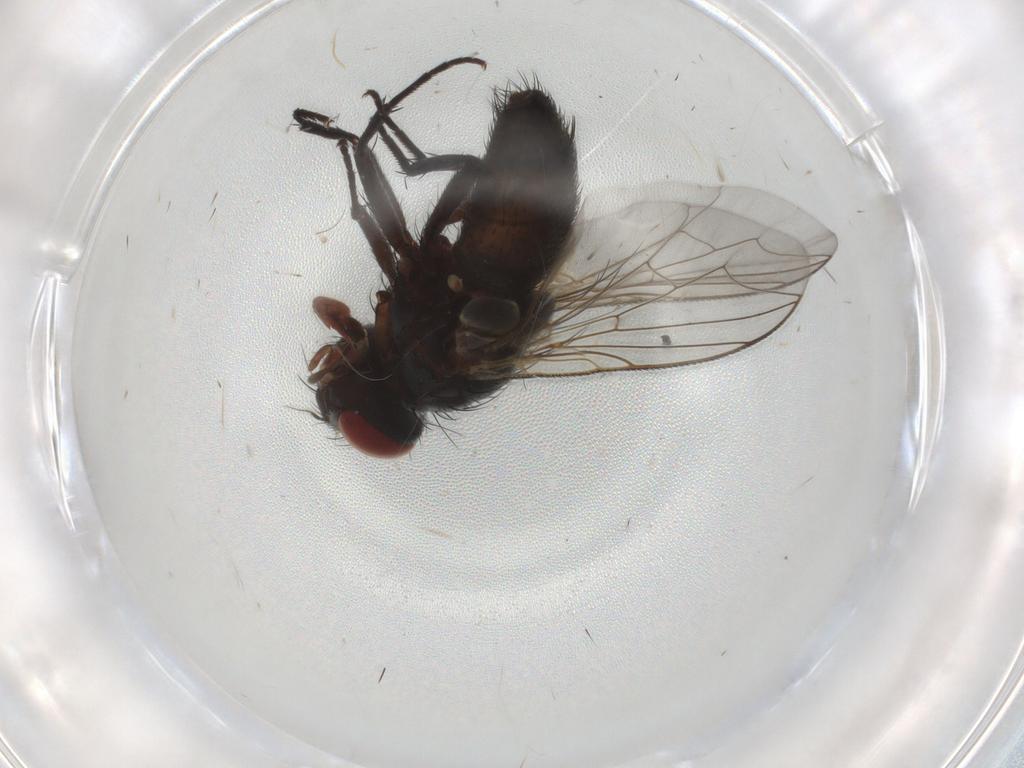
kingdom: Animalia
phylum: Arthropoda
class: Insecta
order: Diptera
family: Sarcophagidae
